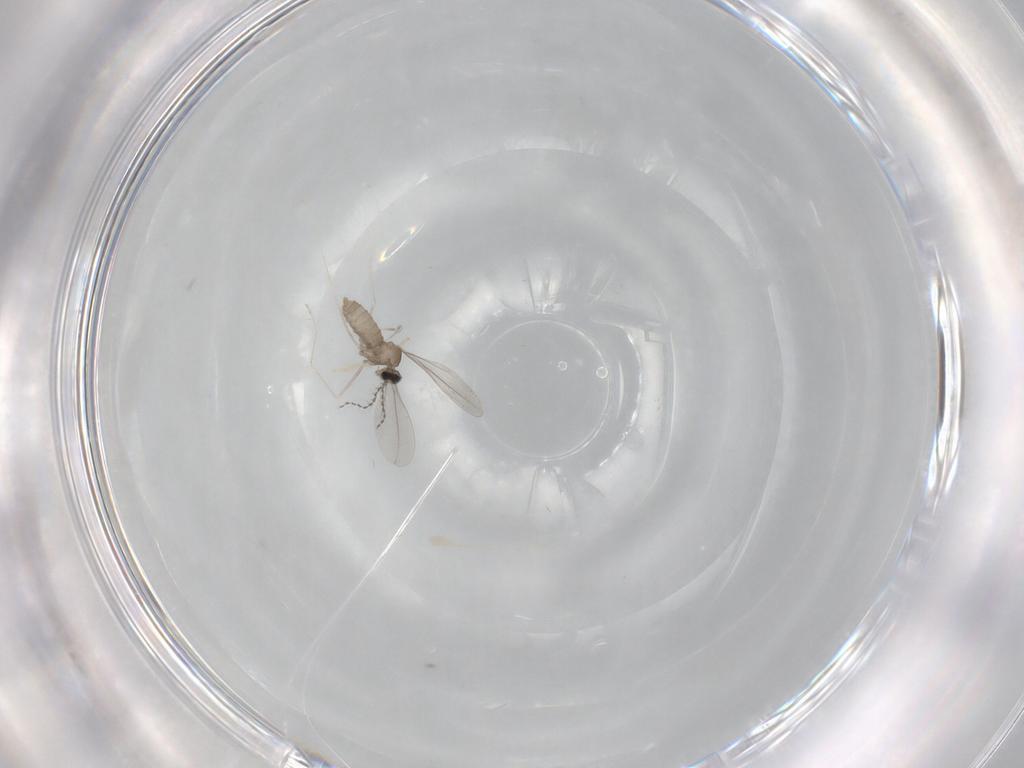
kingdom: Animalia
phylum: Arthropoda
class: Insecta
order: Diptera
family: Cecidomyiidae
